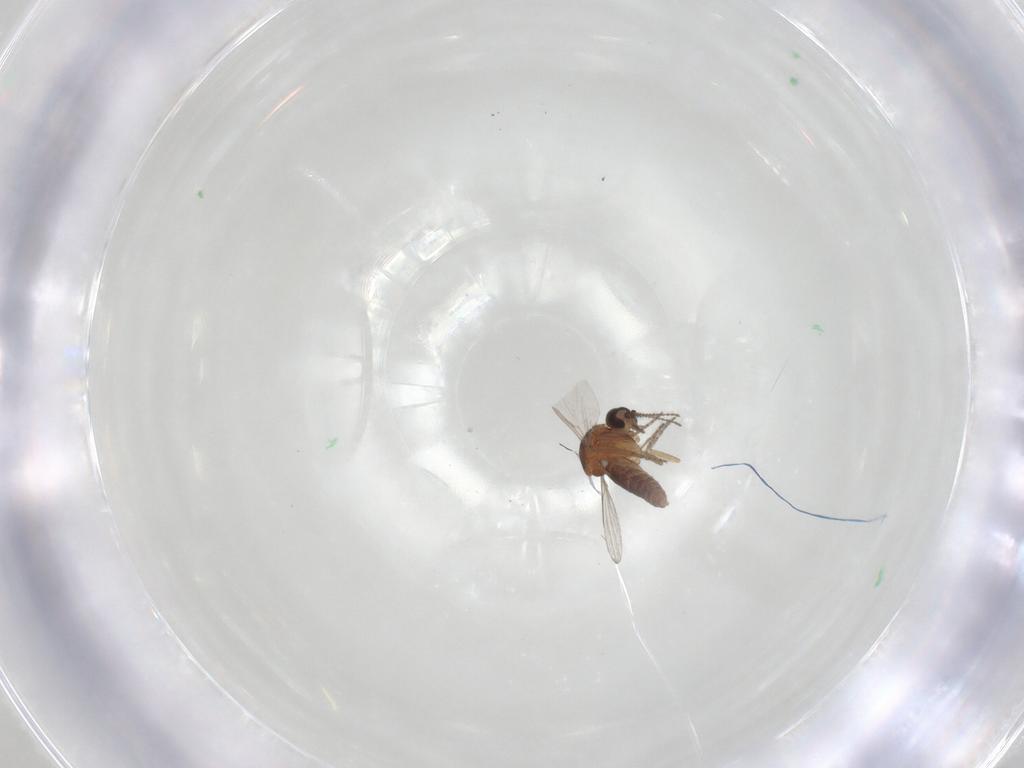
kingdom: Animalia
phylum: Arthropoda
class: Insecta
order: Diptera
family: Ceratopogonidae
